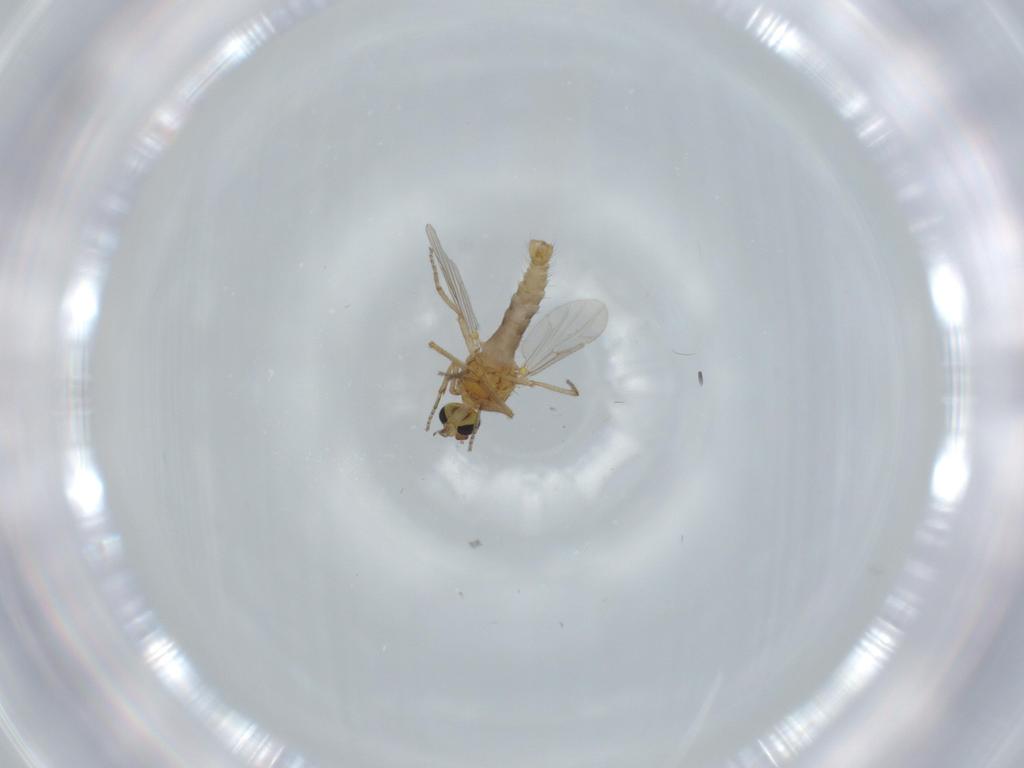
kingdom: Animalia
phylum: Arthropoda
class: Insecta
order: Diptera
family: Ceratopogonidae
